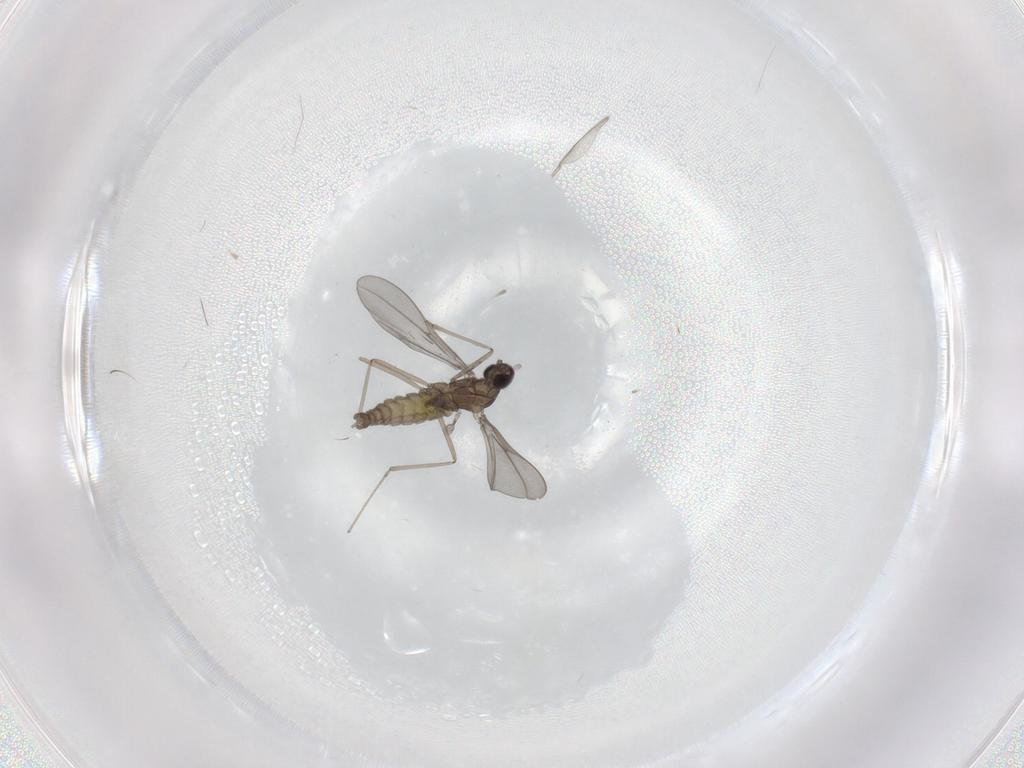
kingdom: Animalia
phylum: Arthropoda
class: Insecta
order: Diptera
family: Cecidomyiidae
